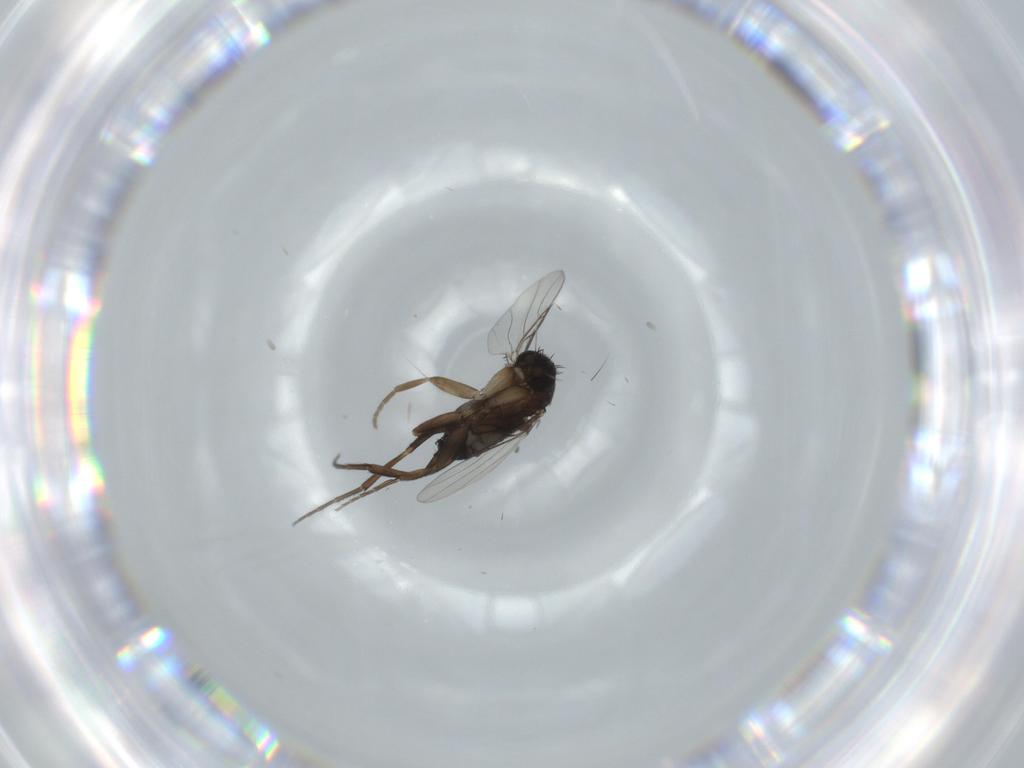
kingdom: Animalia
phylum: Arthropoda
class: Insecta
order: Diptera
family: Phoridae
